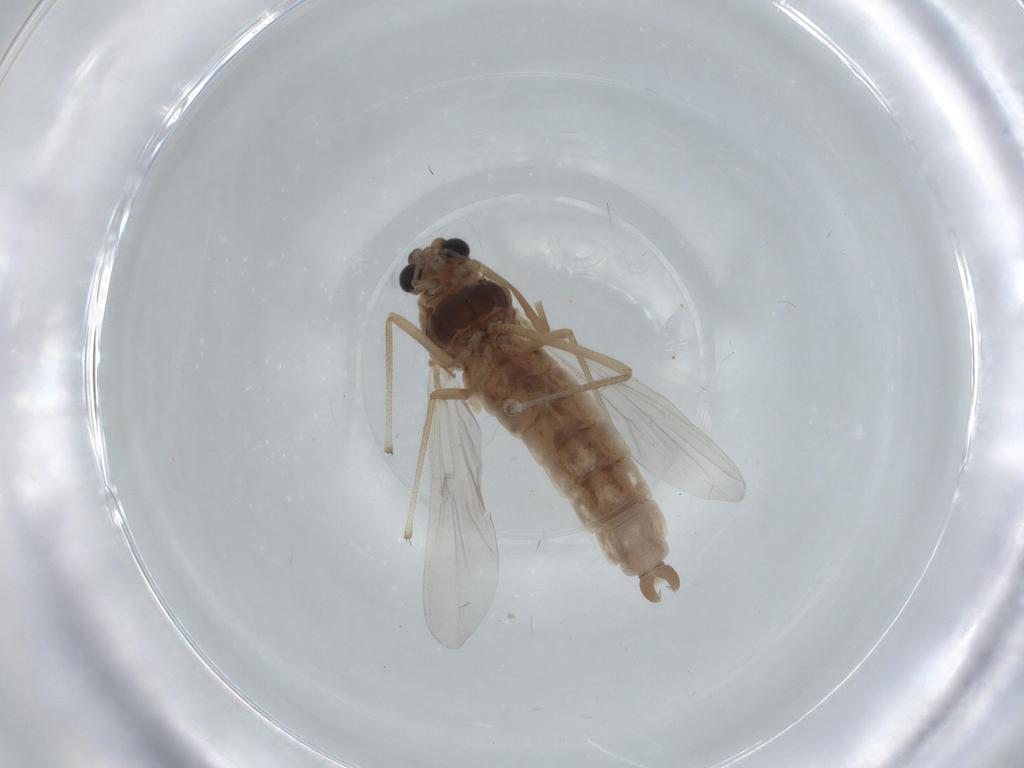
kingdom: Animalia
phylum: Arthropoda
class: Insecta
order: Diptera
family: Chironomidae
